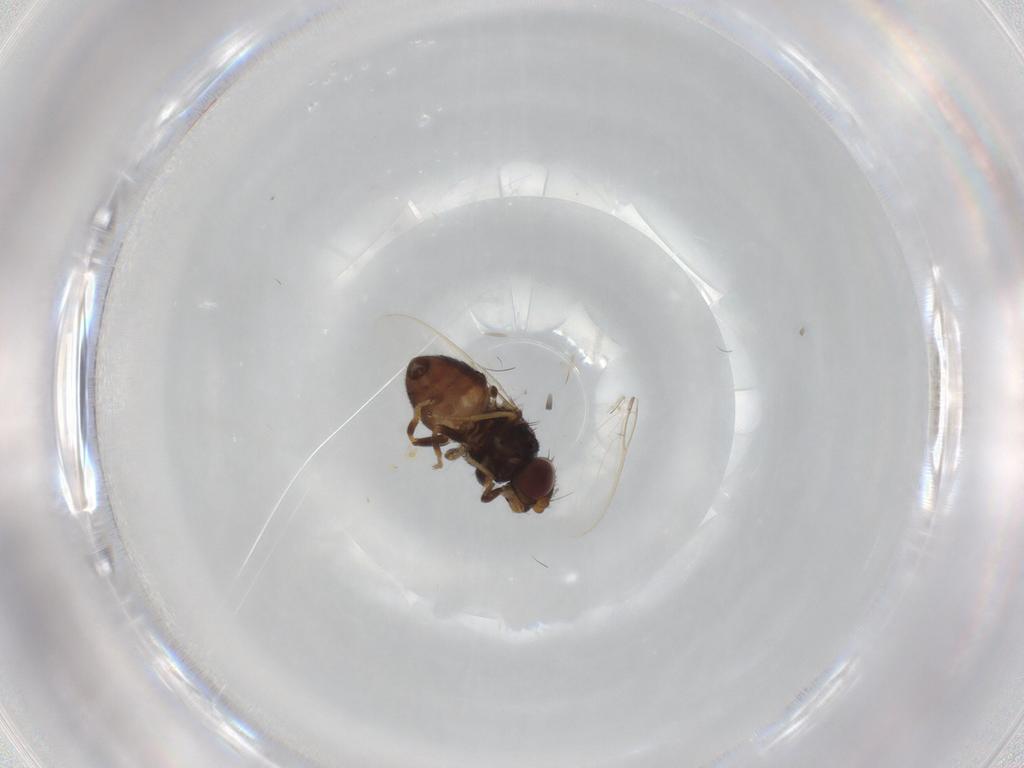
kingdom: Animalia
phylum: Arthropoda
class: Insecta
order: Diptera
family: Chloropidae
